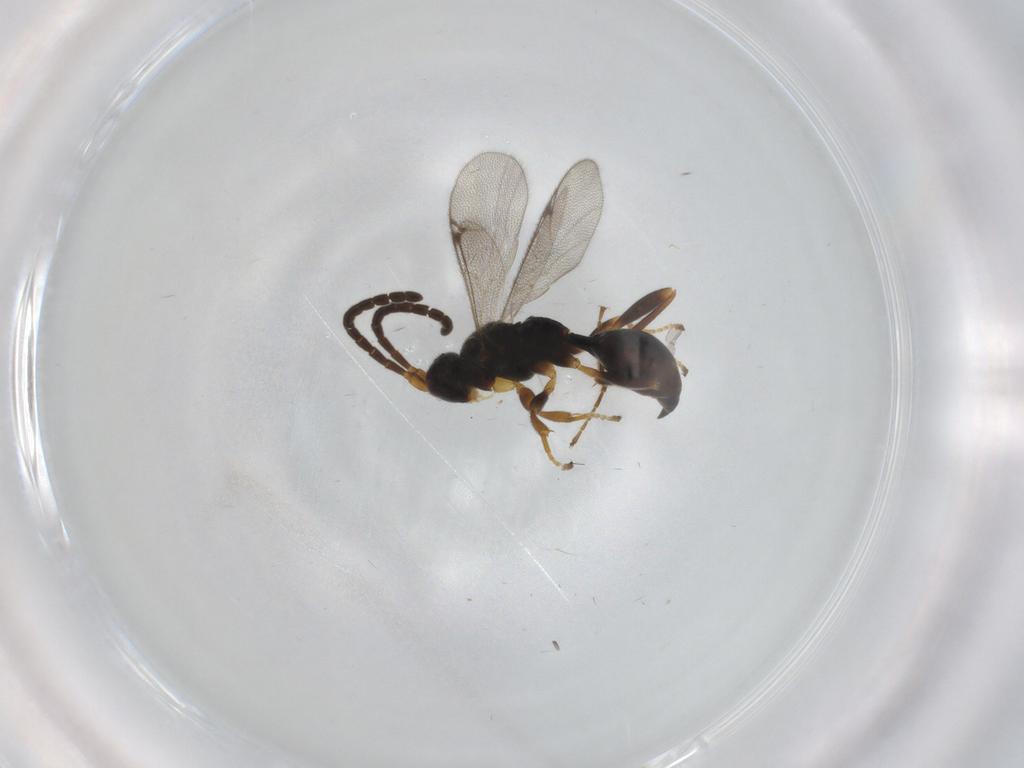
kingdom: Animalia
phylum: Arthropoda
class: Insecta
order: Hymenoptera
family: Proctotrupidae
